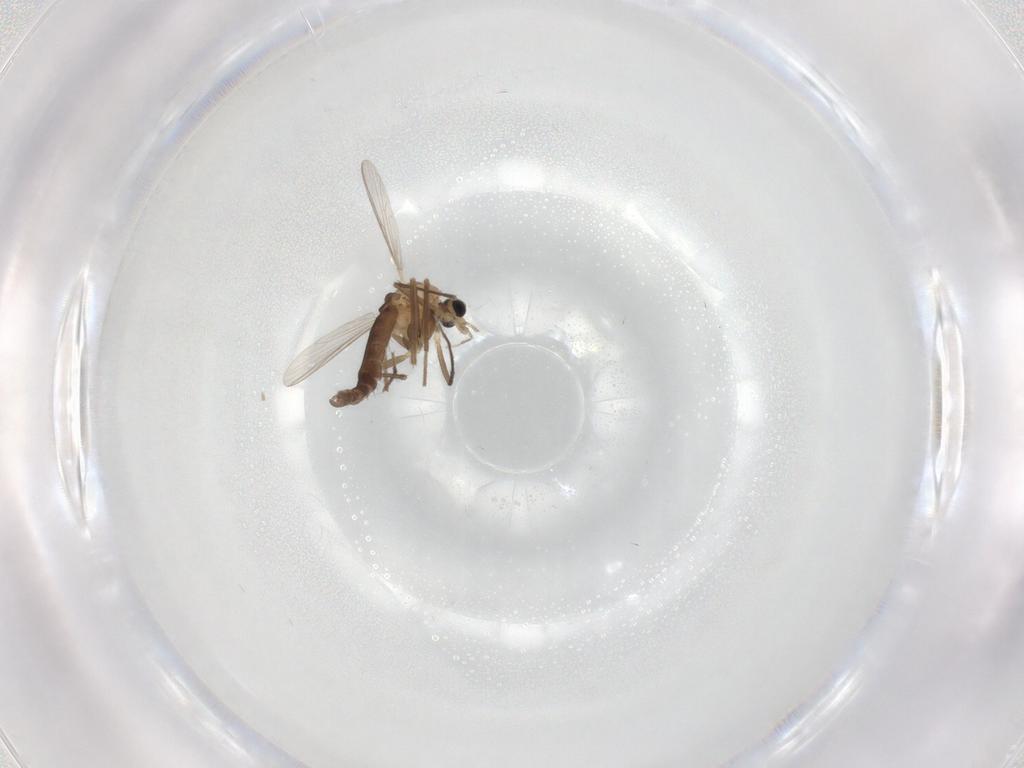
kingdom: Animalia
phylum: Arthropoda
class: Insecta
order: Diptera
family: Chironomidae
